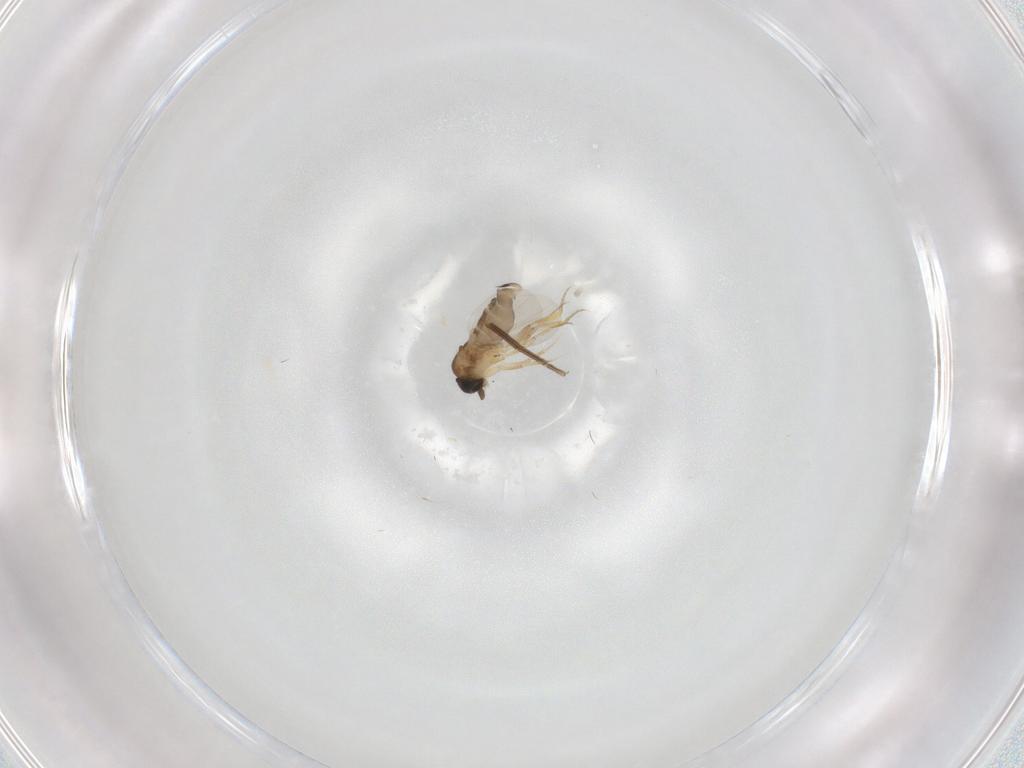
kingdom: Animalia
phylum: Arthropoda
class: Insecta
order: Diptera
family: Phoridae
